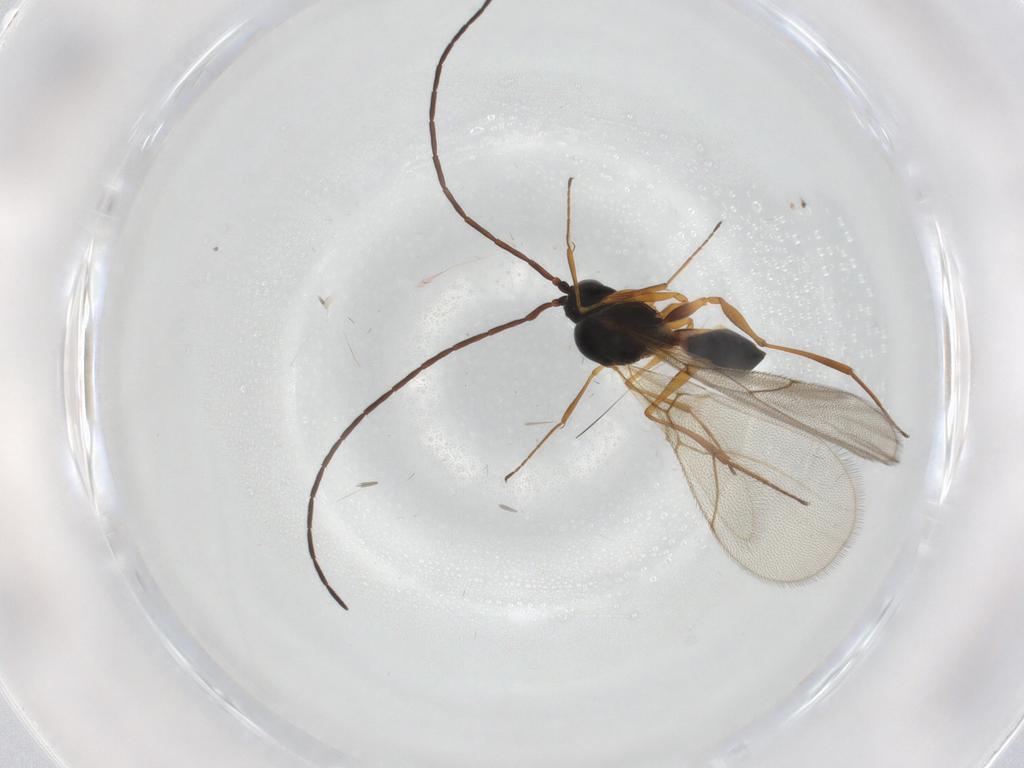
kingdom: Animalia
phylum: Arthropoda
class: Insecta
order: Hymenoptera
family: Figitidae
